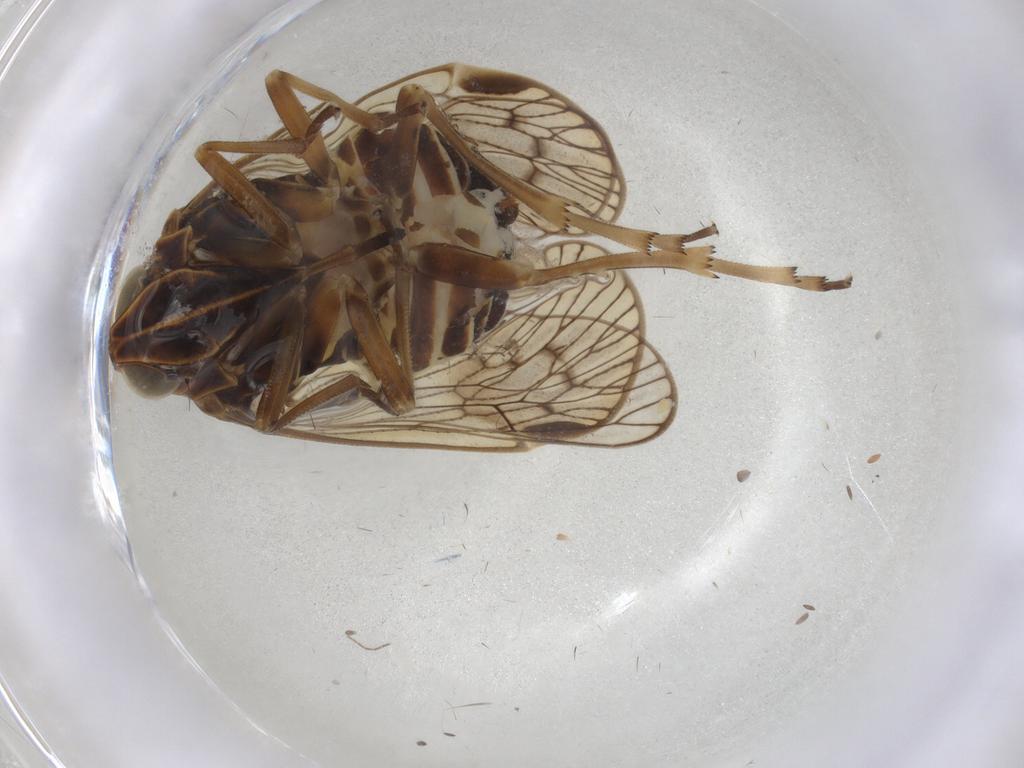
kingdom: Animalia
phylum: Arthropoda
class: Insecta
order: Hemiptera
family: Cixiidae
